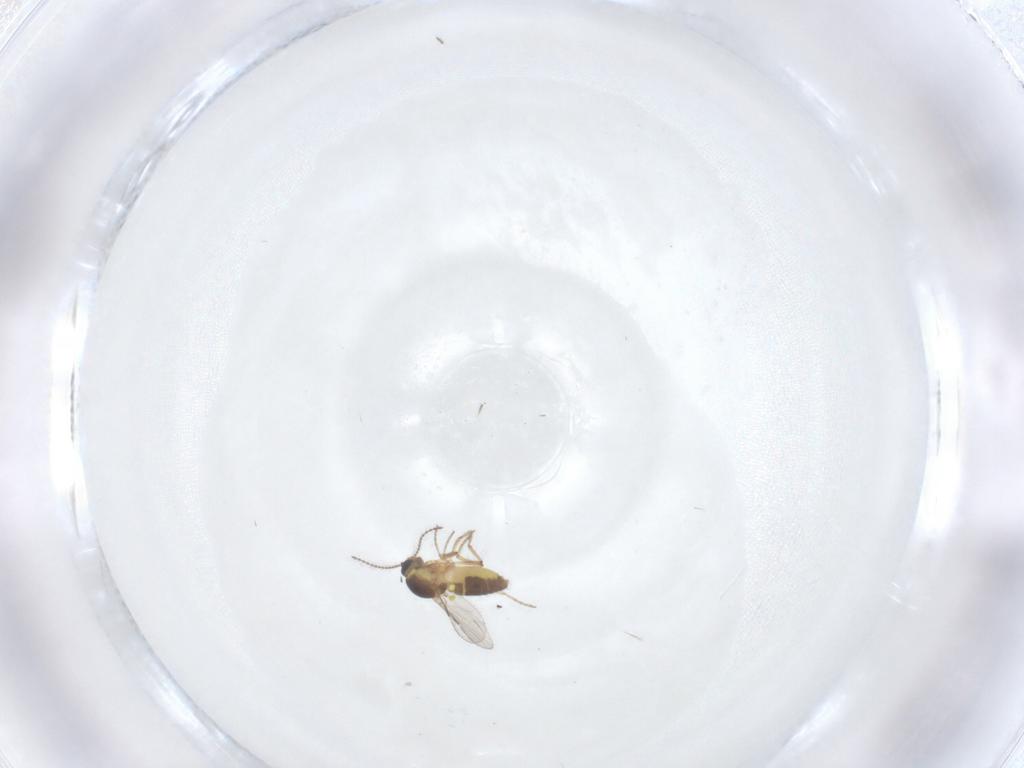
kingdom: Animalia
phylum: Arthropoda
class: Insecta
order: Diptera
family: Ceratopogonidae
